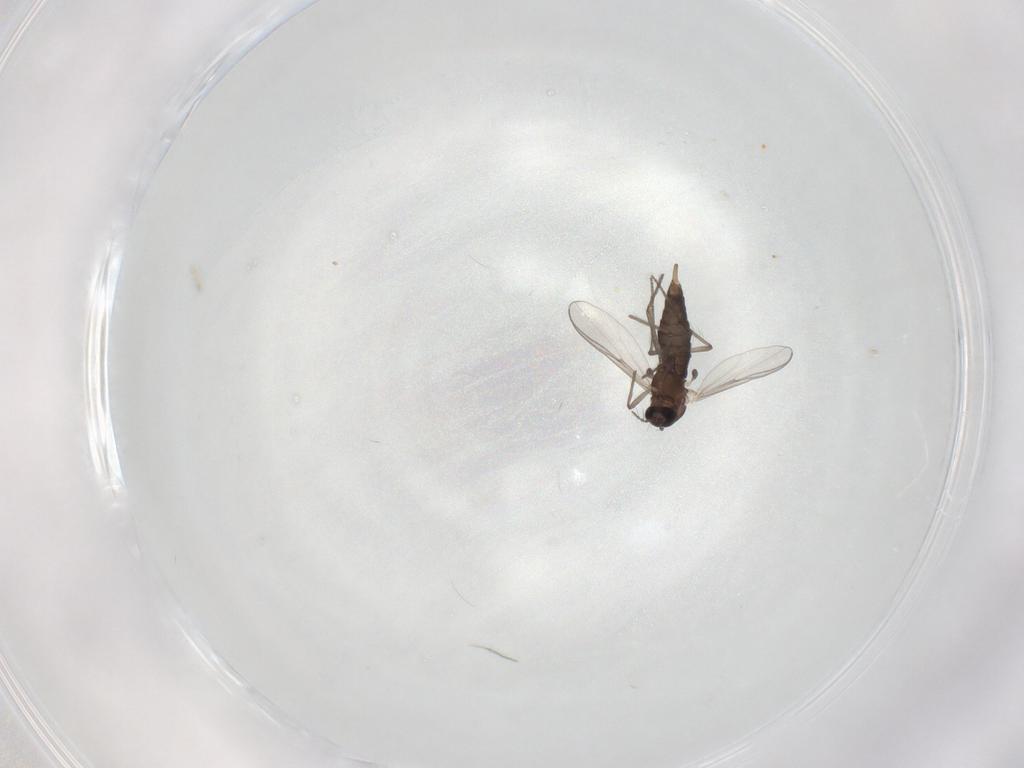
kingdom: Animalia
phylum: Arthropoda
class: Insecta
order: Diptera
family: Chironomidae
